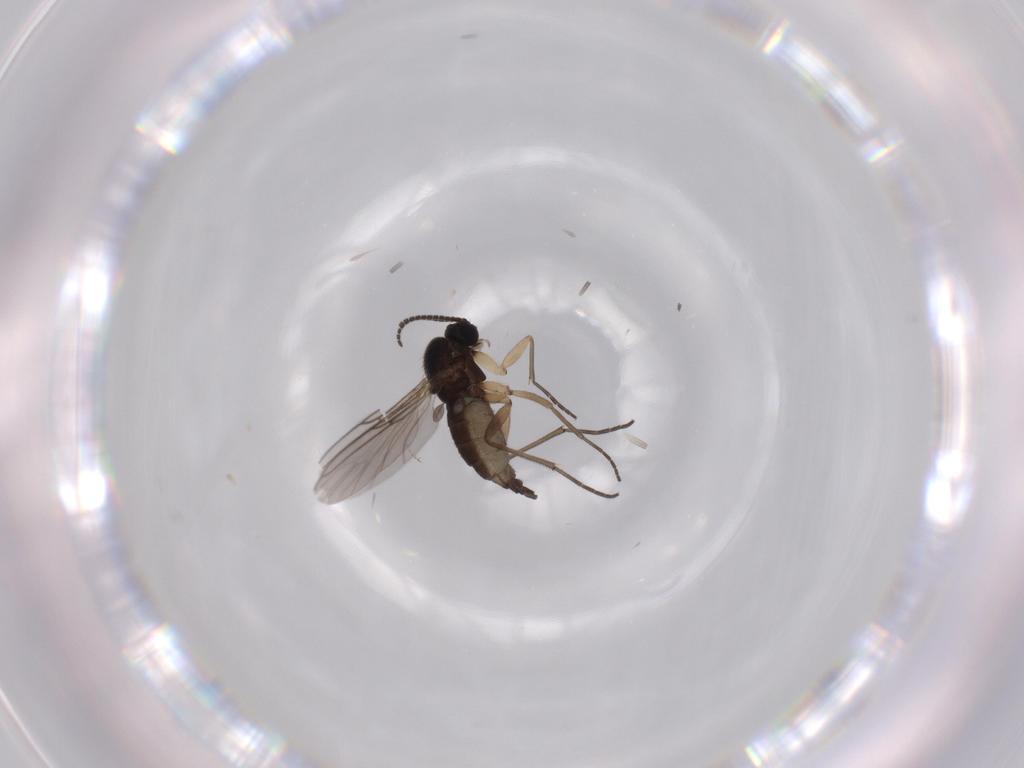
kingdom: Animalia
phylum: Arthropoda
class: Insecta
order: Diptera
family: Sciaridae
